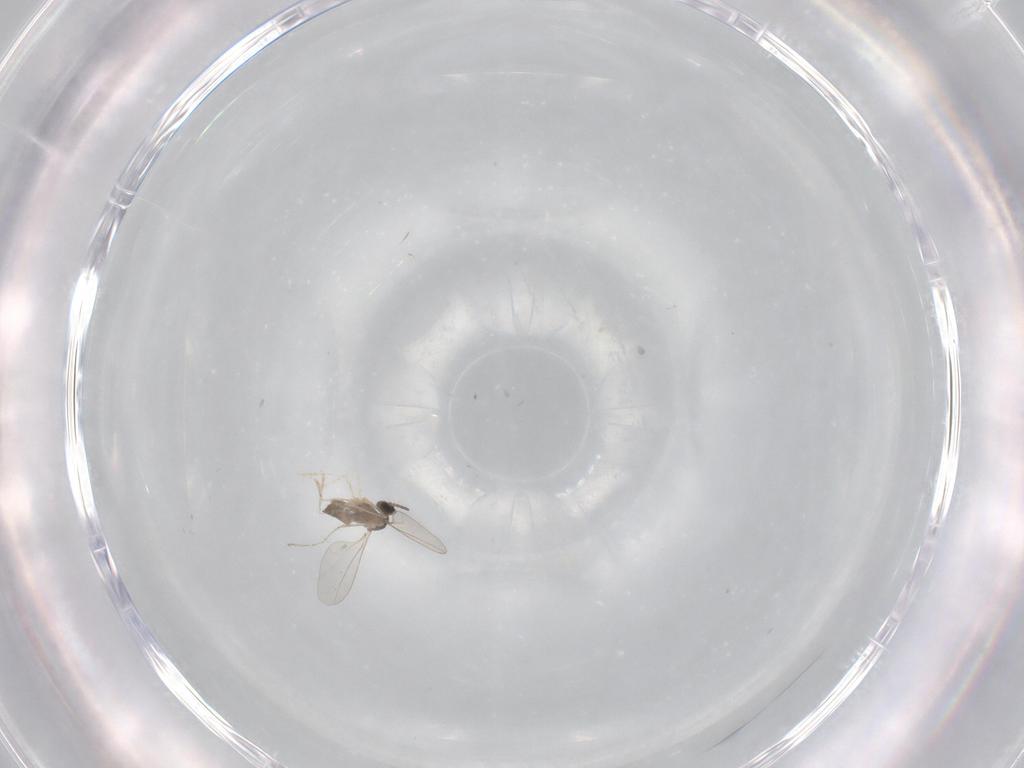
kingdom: Animalia
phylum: Arthropoda
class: Insecta
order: Diptera
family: Cecidomyiidae
